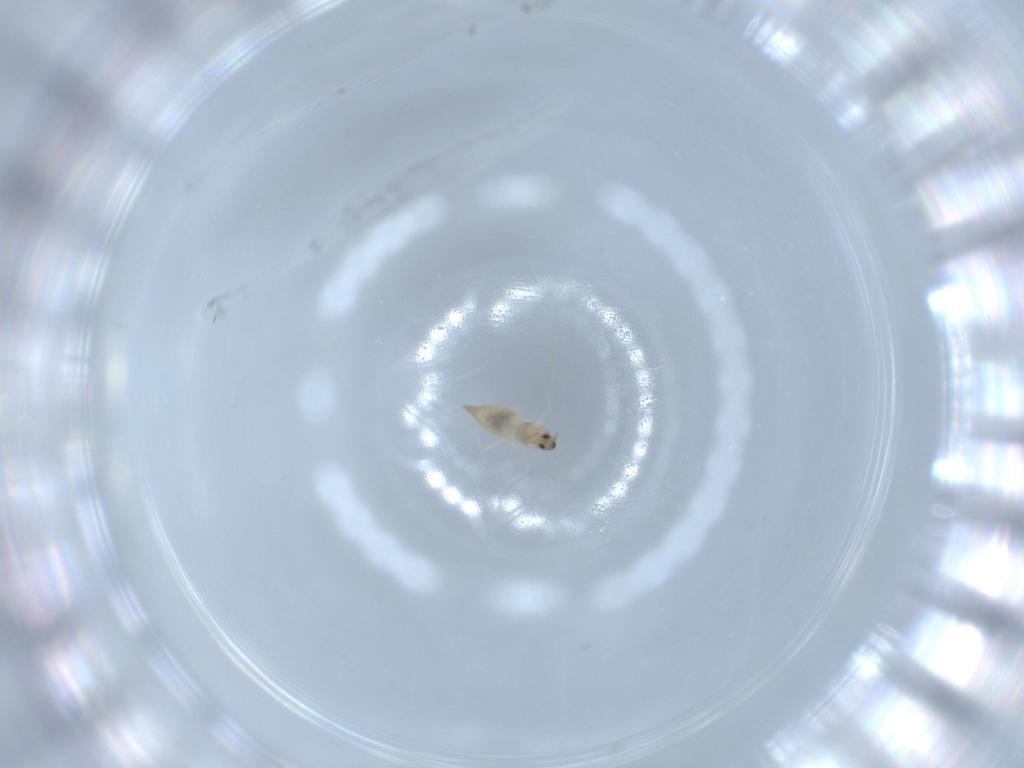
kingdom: Animalia
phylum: Arthropoda
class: Insecta
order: Diptera
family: Cecidomyiidae
